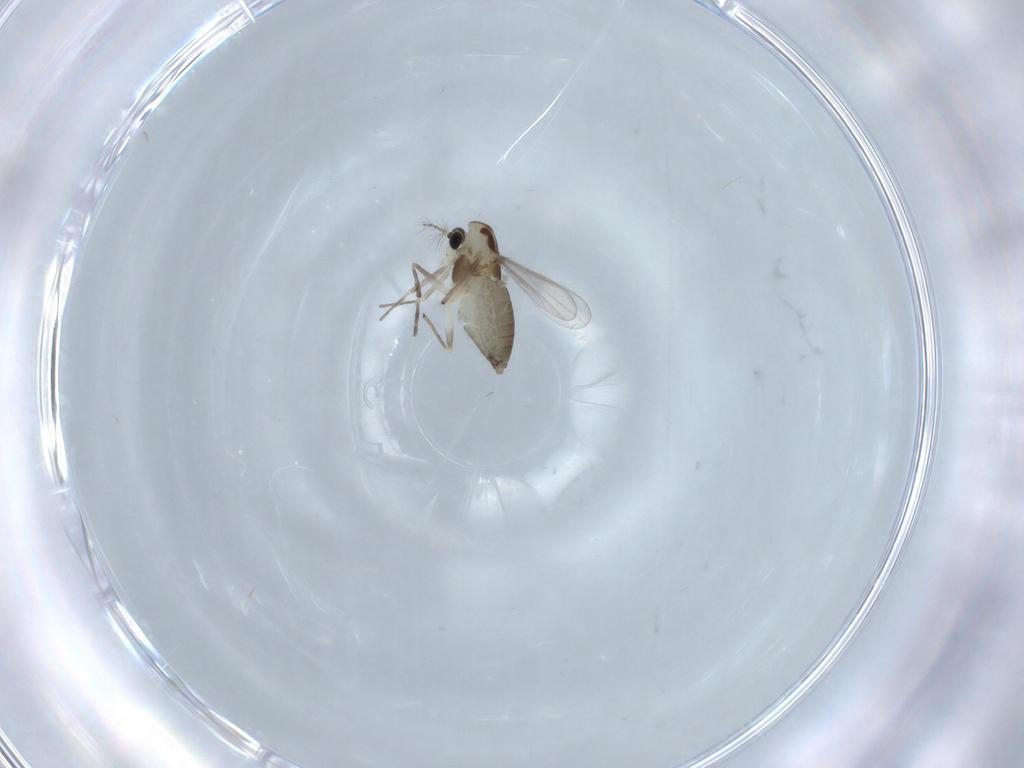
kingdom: Animalia
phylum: Arthropoda
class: Insecta
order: Diptera
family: Chironomidae
